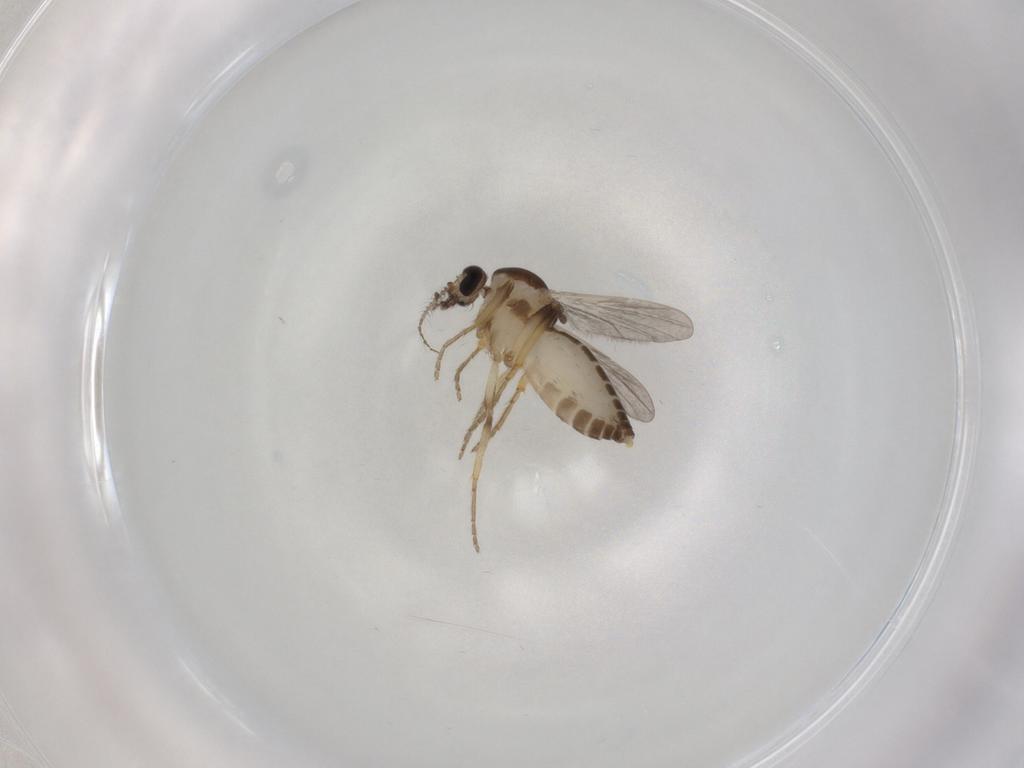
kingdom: Animalia
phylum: Arthropoda
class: Insecta
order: Diptera
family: Ceratopogonidae
